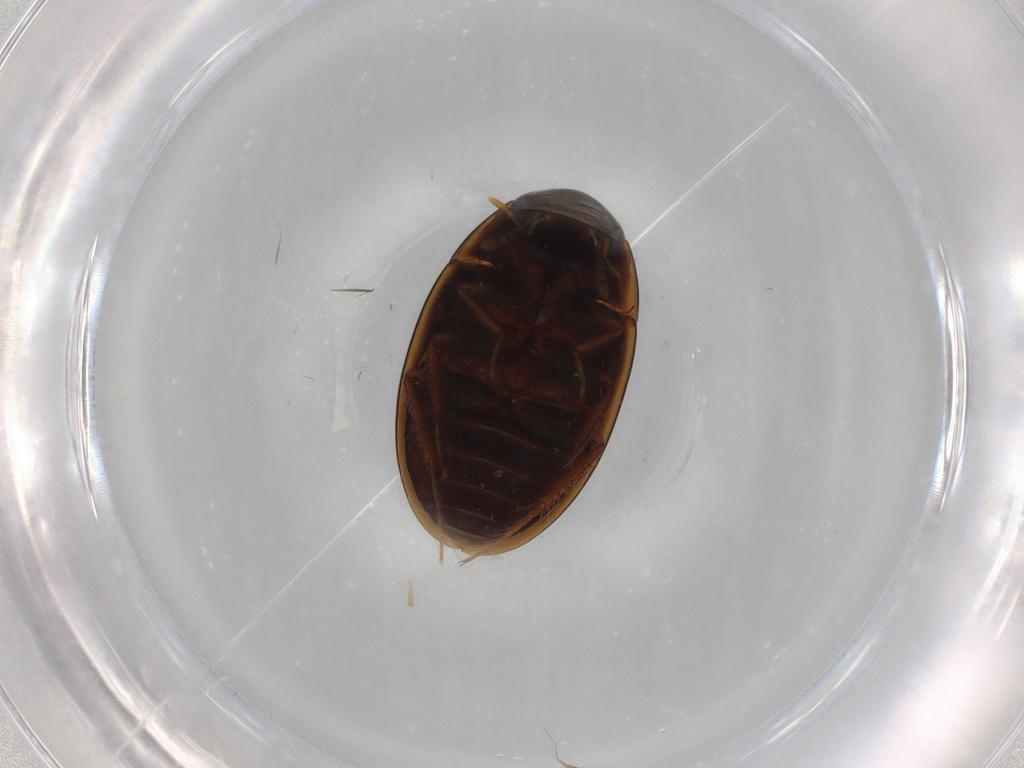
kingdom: Animalia
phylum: Arthropoda
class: Insecta
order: Coleoptera
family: Hydrophilidae
